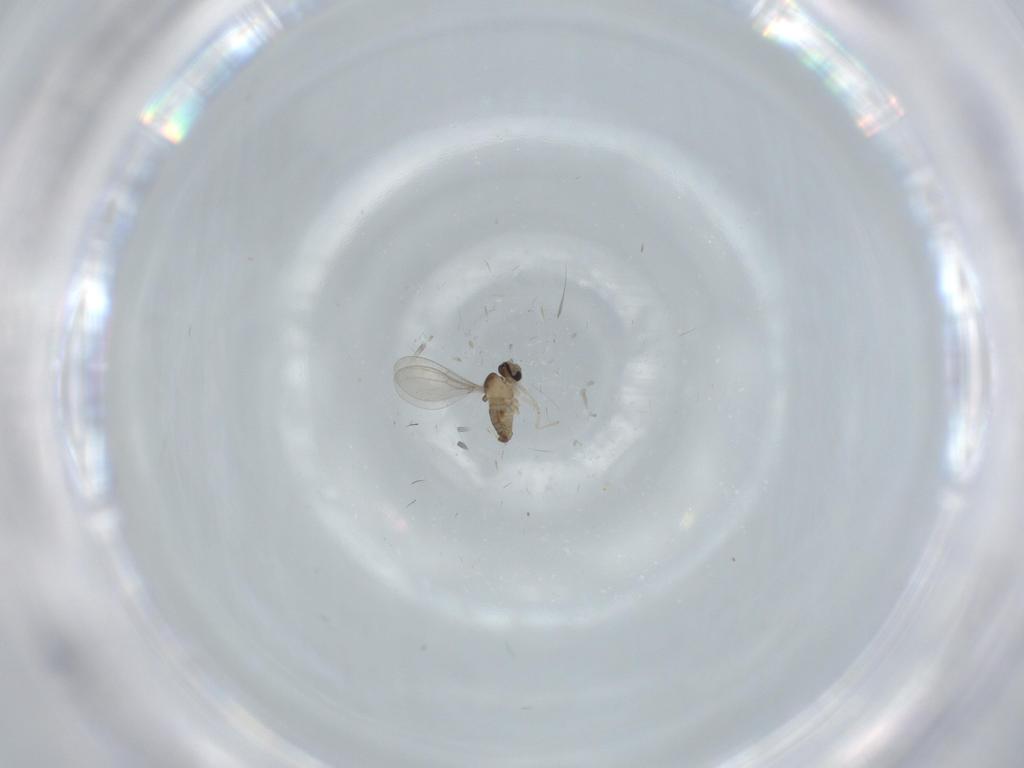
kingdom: Animalia
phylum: Arthropoda
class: Insecta
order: Diptera
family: Cecidomyiidae
